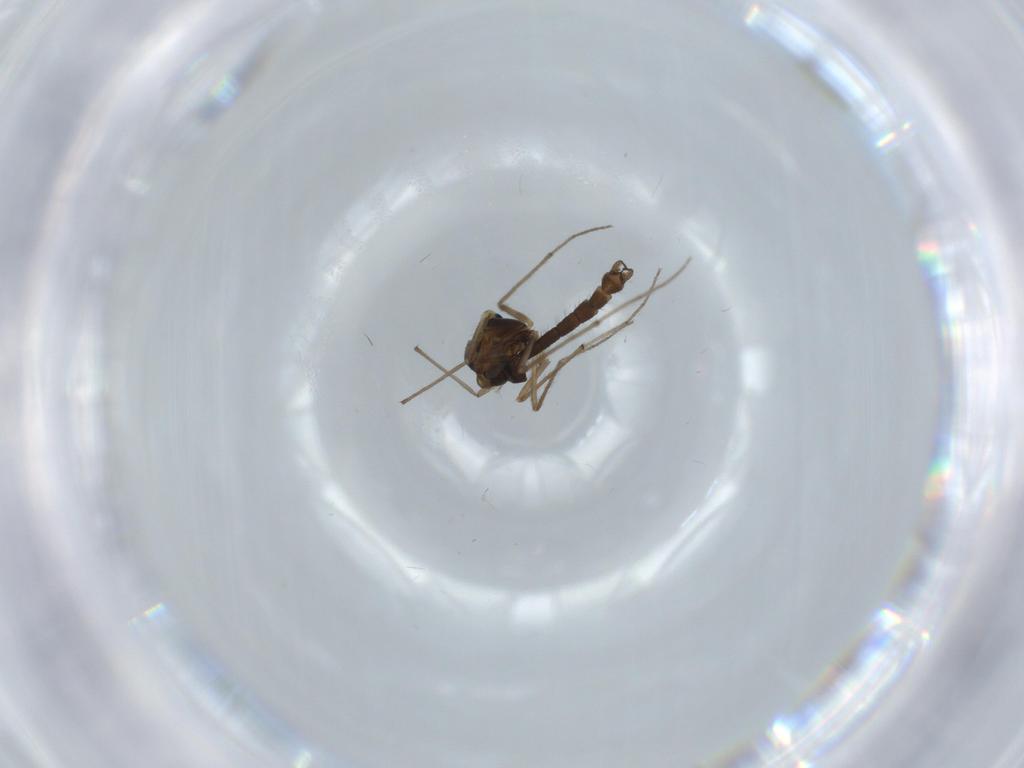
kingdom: Animalia
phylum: Arthropoda
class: Insecta
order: Diptera
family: Chironomidae
